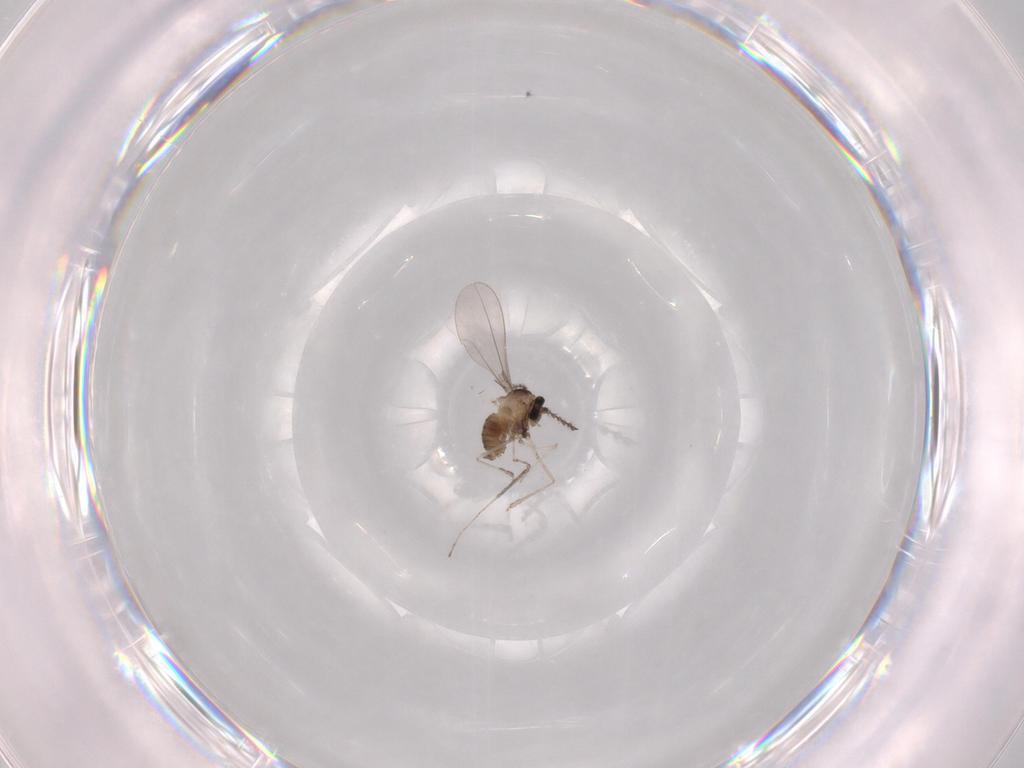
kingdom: Animalia
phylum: Arthropoda
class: Insecta
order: Diptera
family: Cecidomyiidae
